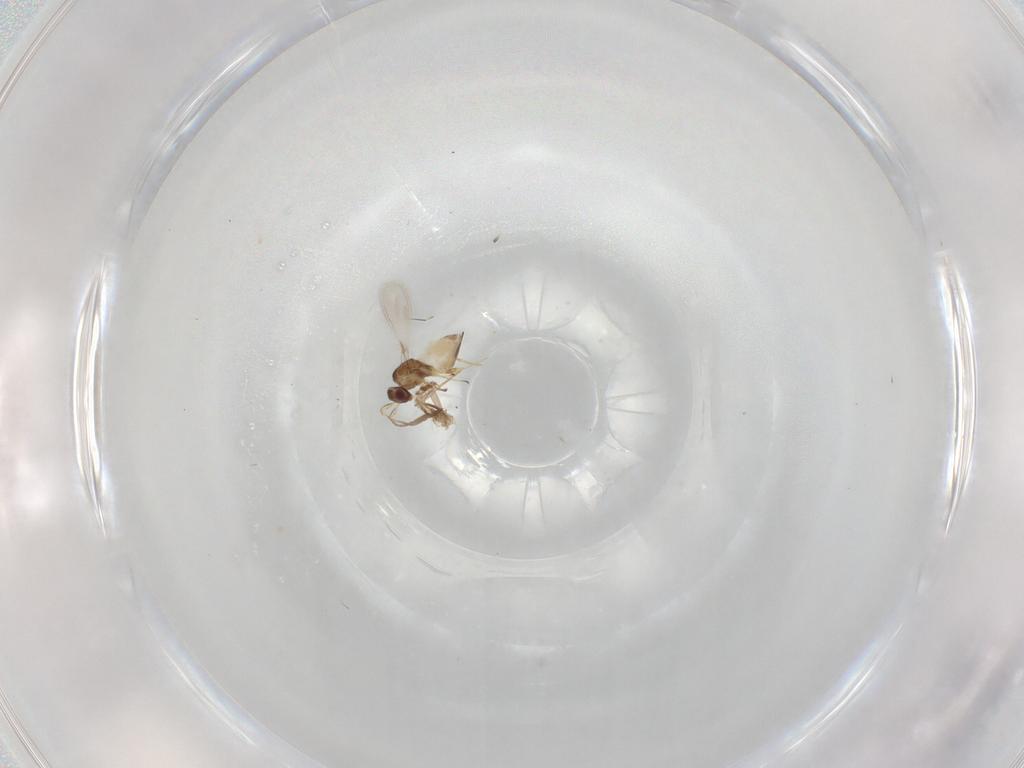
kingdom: Animalia
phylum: Arthropoda
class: Insecta
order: Hymenoptera
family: Mymaridae
